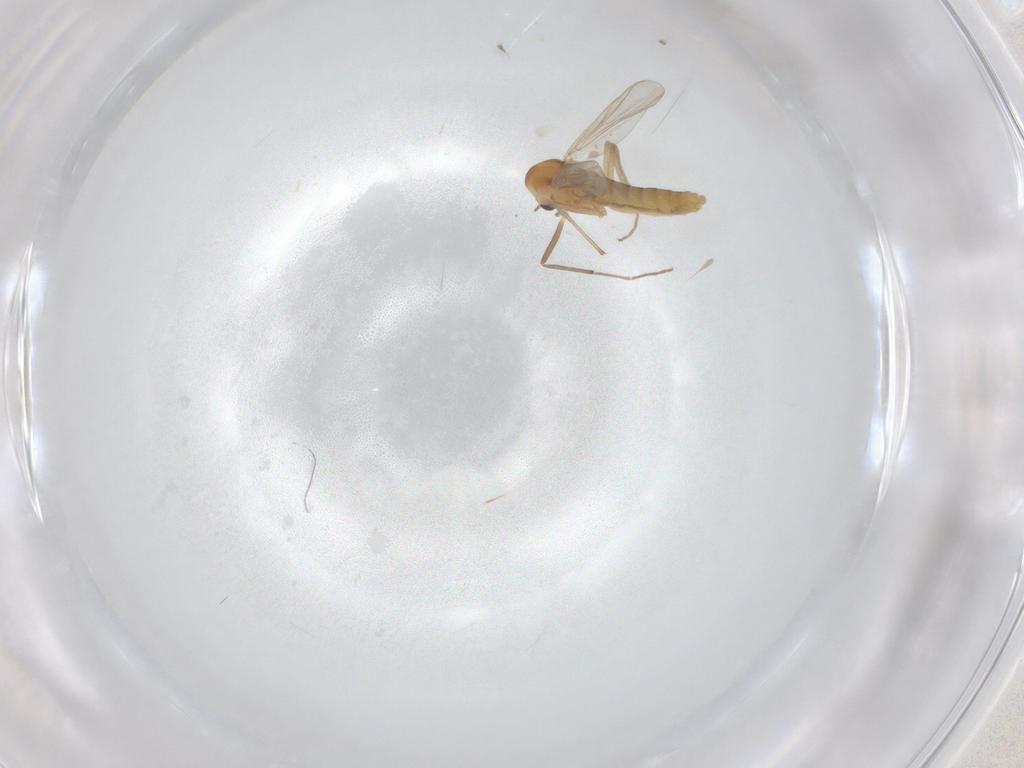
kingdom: Animalia
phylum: Arthropoda
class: Insecta
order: Diptera
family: Chironomidae
